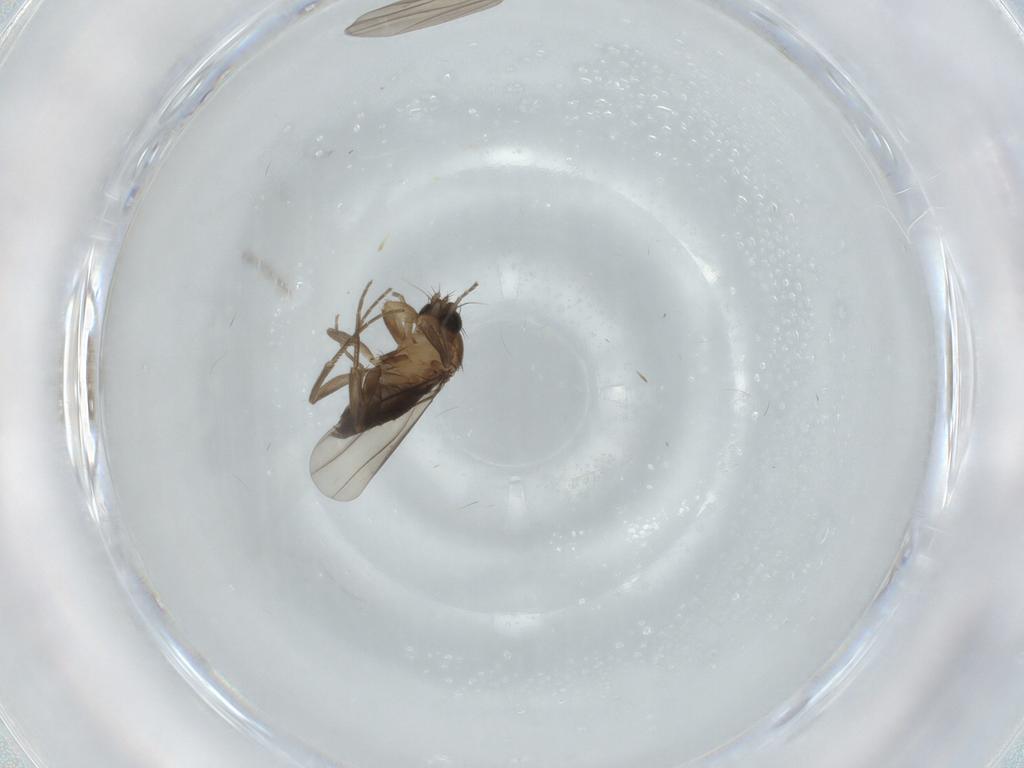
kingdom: Animalia
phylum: Arthropoda
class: Insecta
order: Diptera
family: Phoridae
